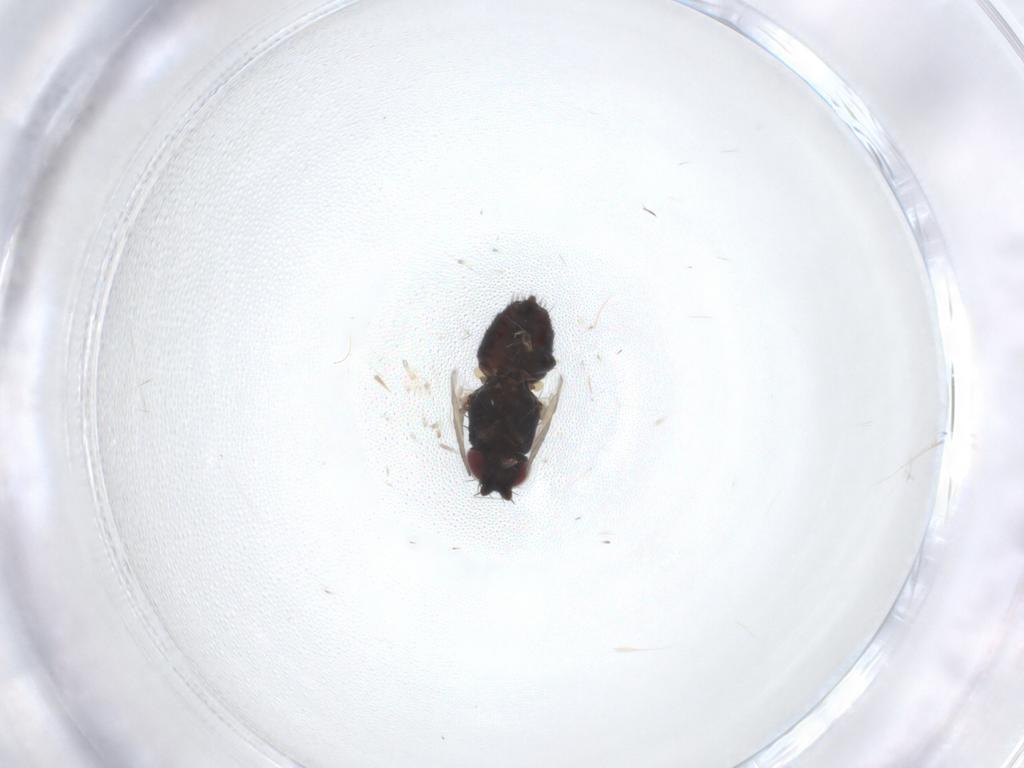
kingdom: Animalia
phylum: Arthropoda
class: Insecta
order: Diptera
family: Milichiidae
